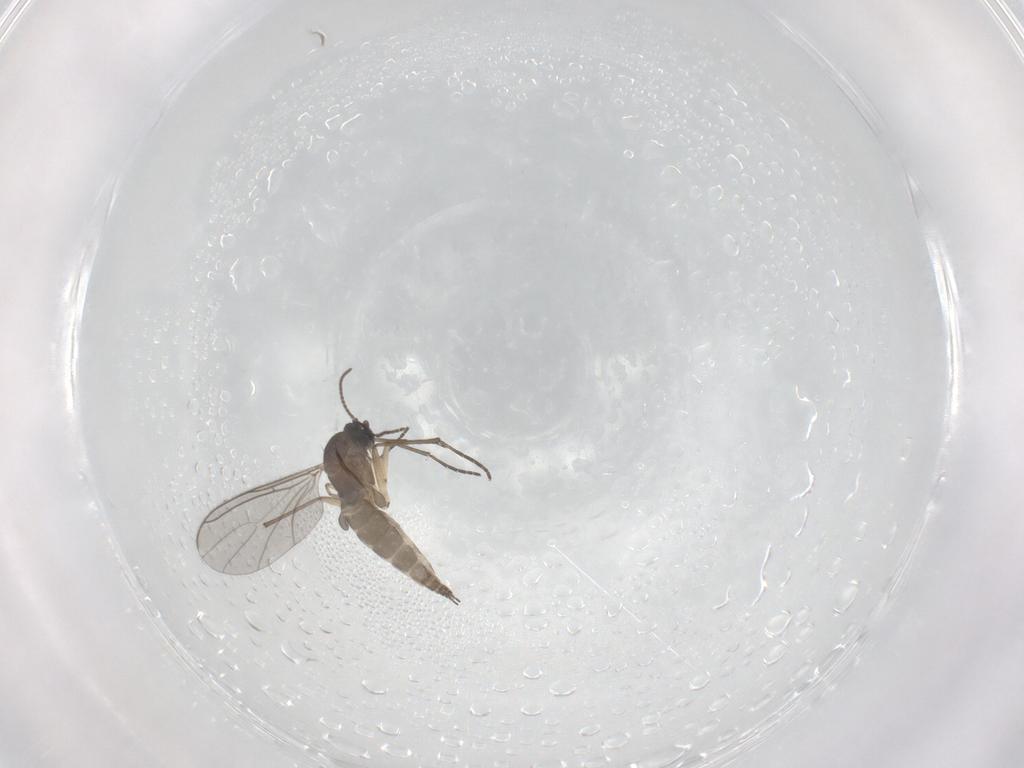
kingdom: Animalia
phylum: Arthropoda
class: Insecta
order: Diptera
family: Sciaridae
